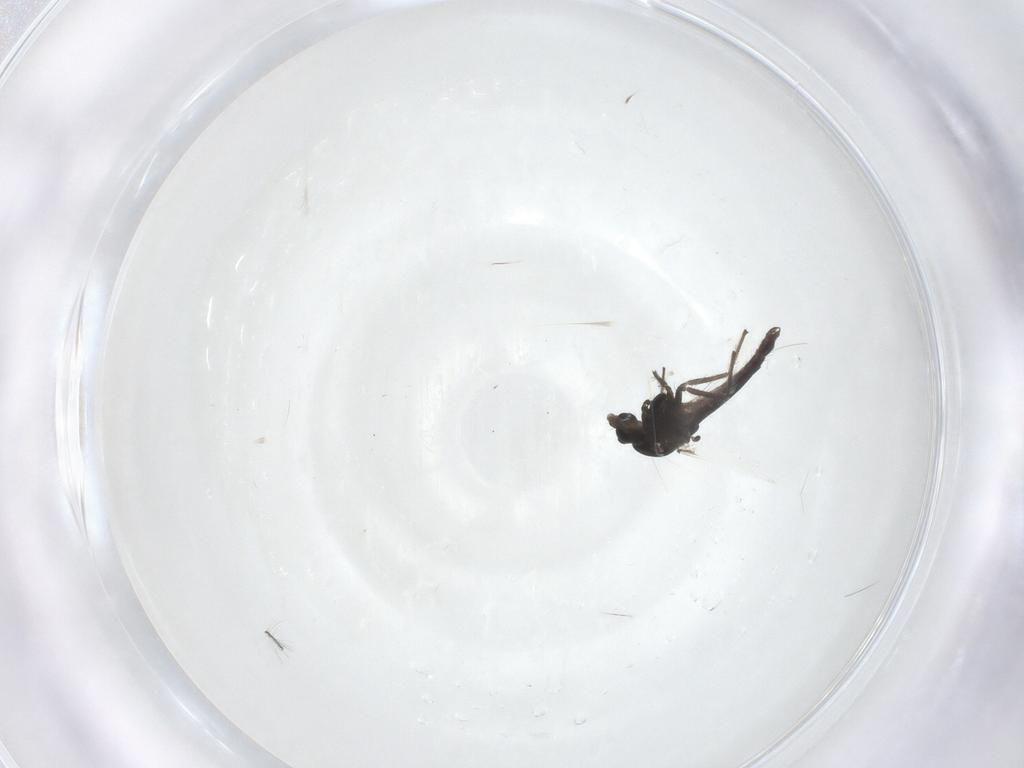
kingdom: Animalia
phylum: Arthropoda
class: Insecta
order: Diptera
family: Chironomidae
